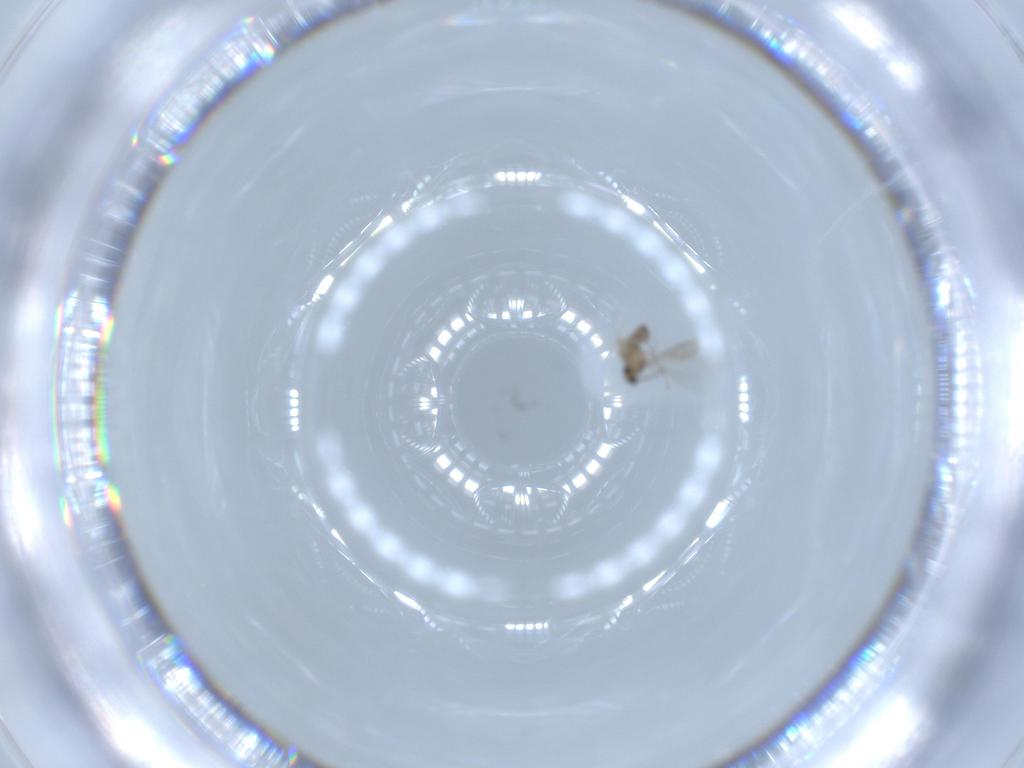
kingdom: Animalia
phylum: Arthropoda
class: Insecta
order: Diptera
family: Cecidomyiidae
